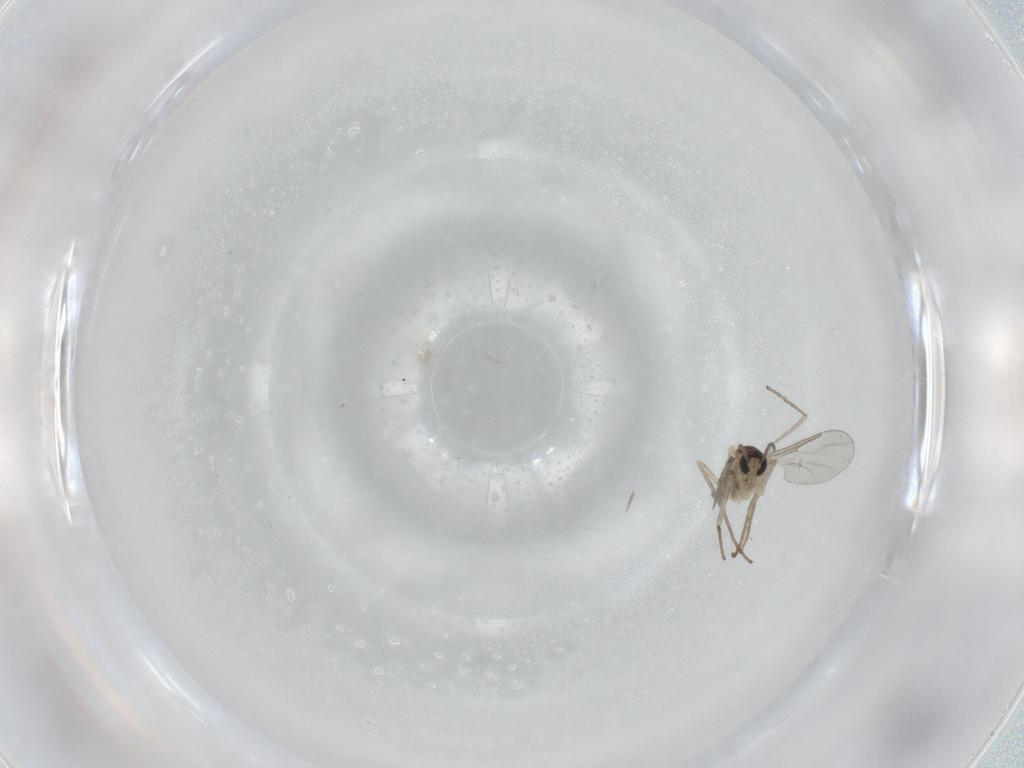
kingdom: Animalia
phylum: Arthropoda
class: Insecta
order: Diptera
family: Cecidomyiidae
